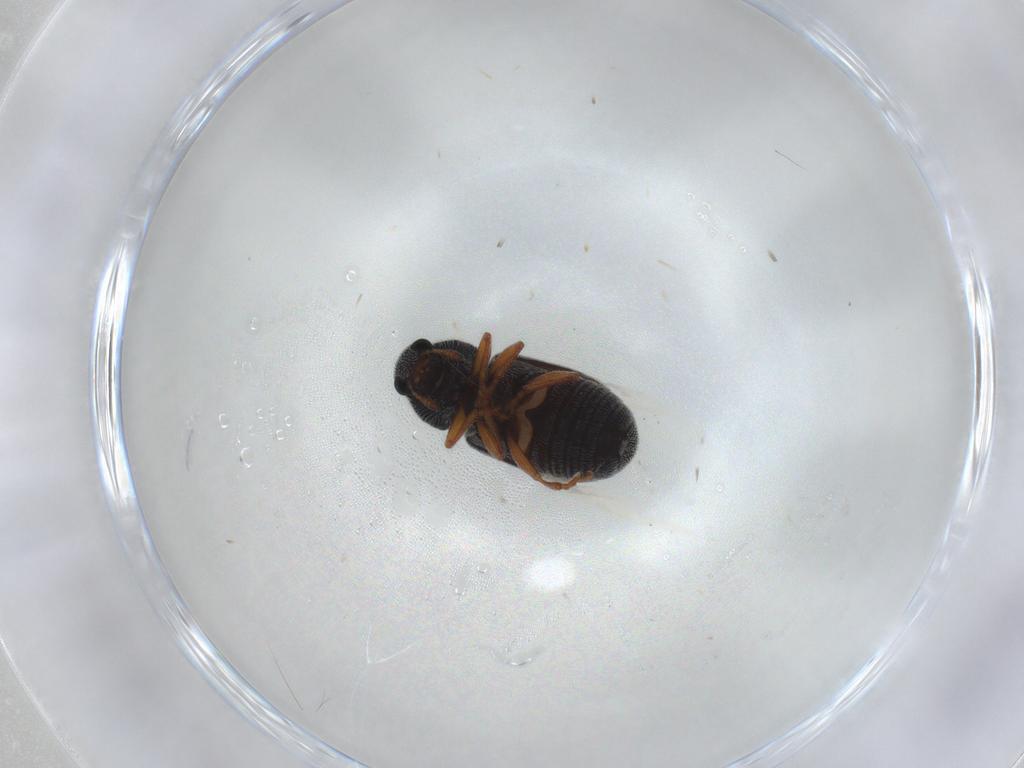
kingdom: Animalia
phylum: Arthropoda
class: Insecta
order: Coleoptera
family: Anthribidae
